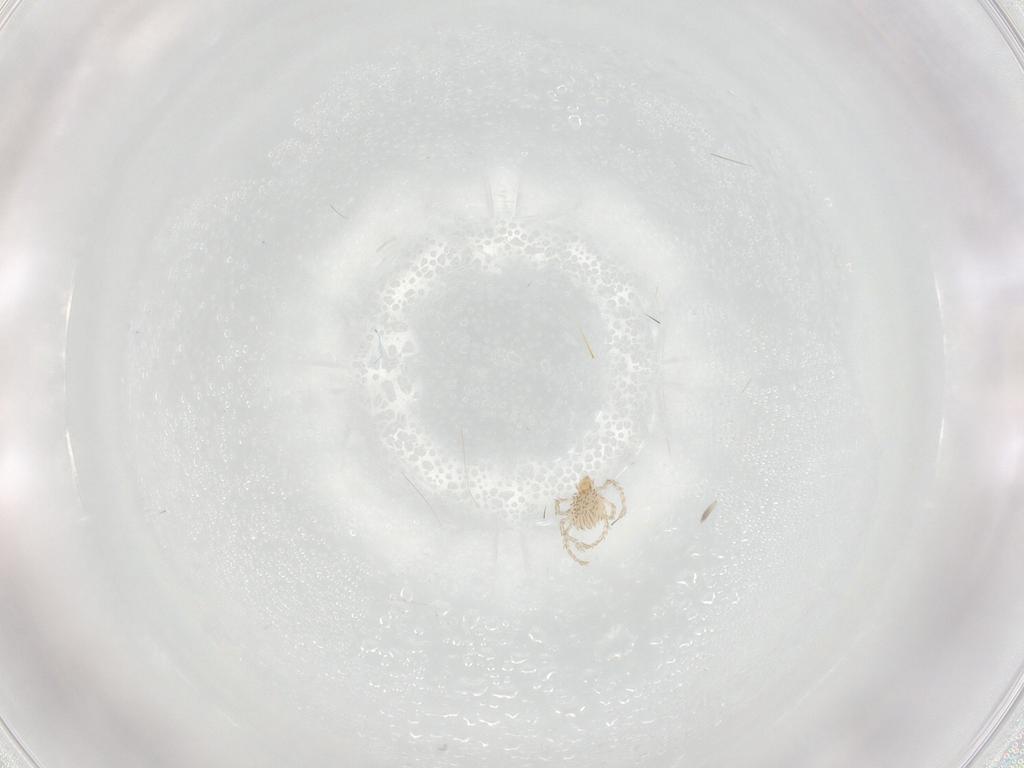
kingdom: Animalia
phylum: Arthropoda
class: Arachnida
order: Trombidiformes
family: Erythraeidae
